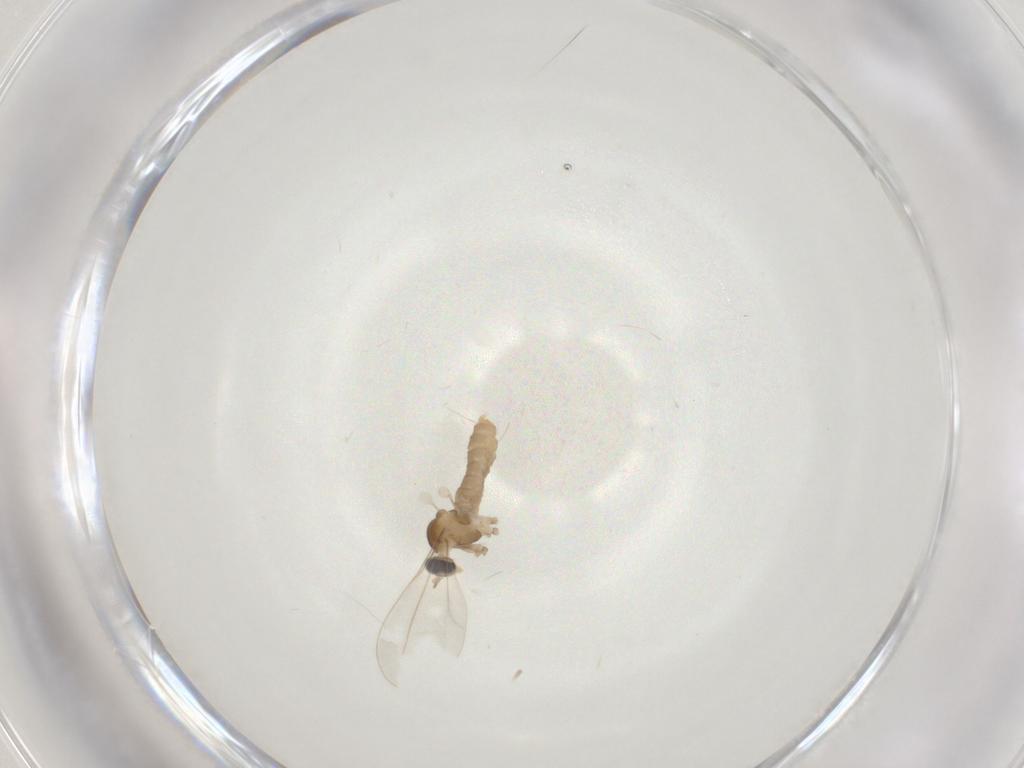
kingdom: Animalia
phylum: Arthropoda
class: Insecta
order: Diptera
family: Cecidomyiidae
